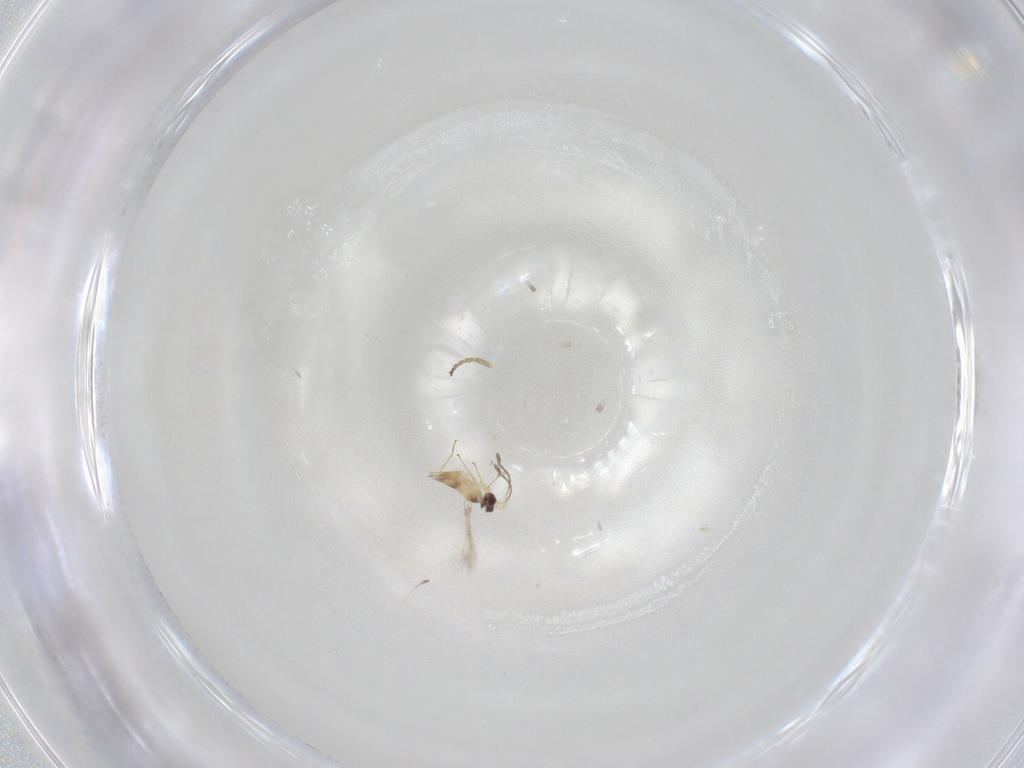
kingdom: Animalia
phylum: Arthropoda
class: Insecta
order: Hymenoptera
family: Mymaridae
